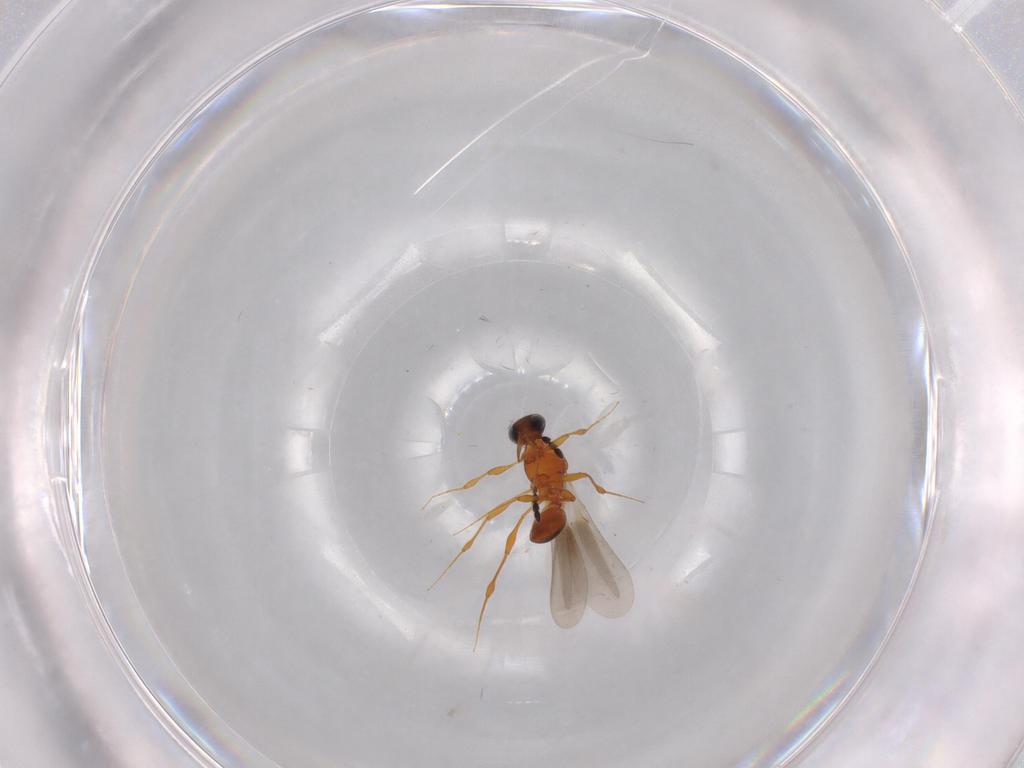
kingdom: Animalia
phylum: Arthropoda
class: Insecta
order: Hymenoptera
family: Platygastridae
